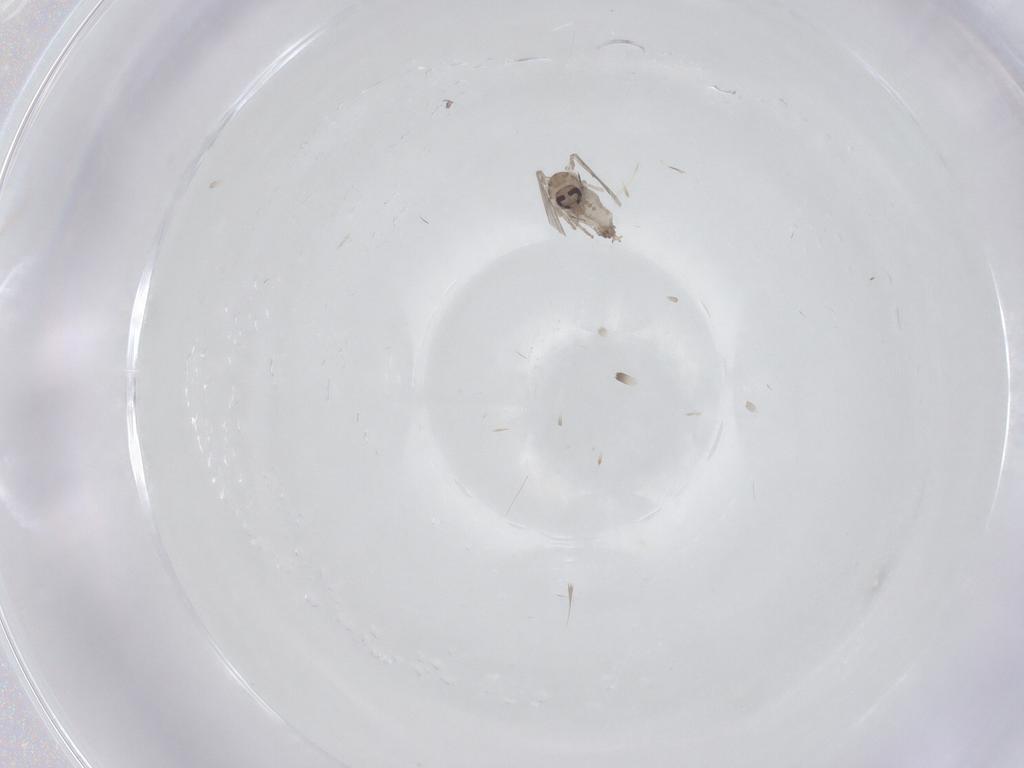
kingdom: Animalia
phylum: Arthropoda
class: Insecta
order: Diptera
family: Psychodidae
